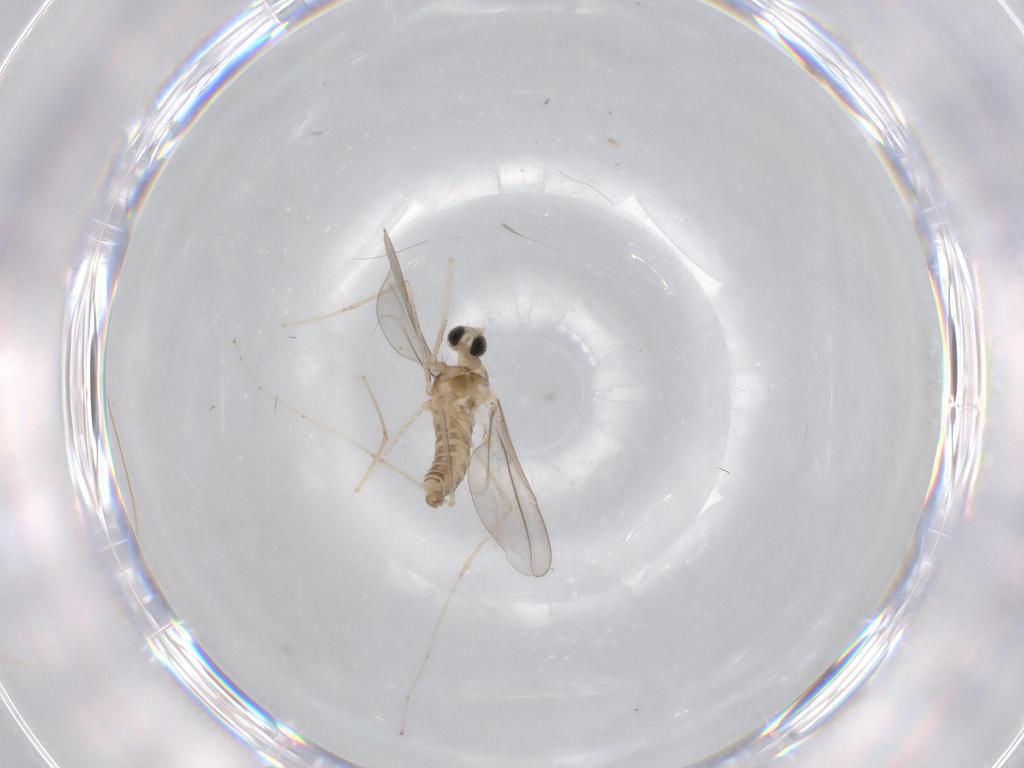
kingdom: Animalia
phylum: Arthropoda
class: Insecta
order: Diptera
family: Cecidomyiidae
